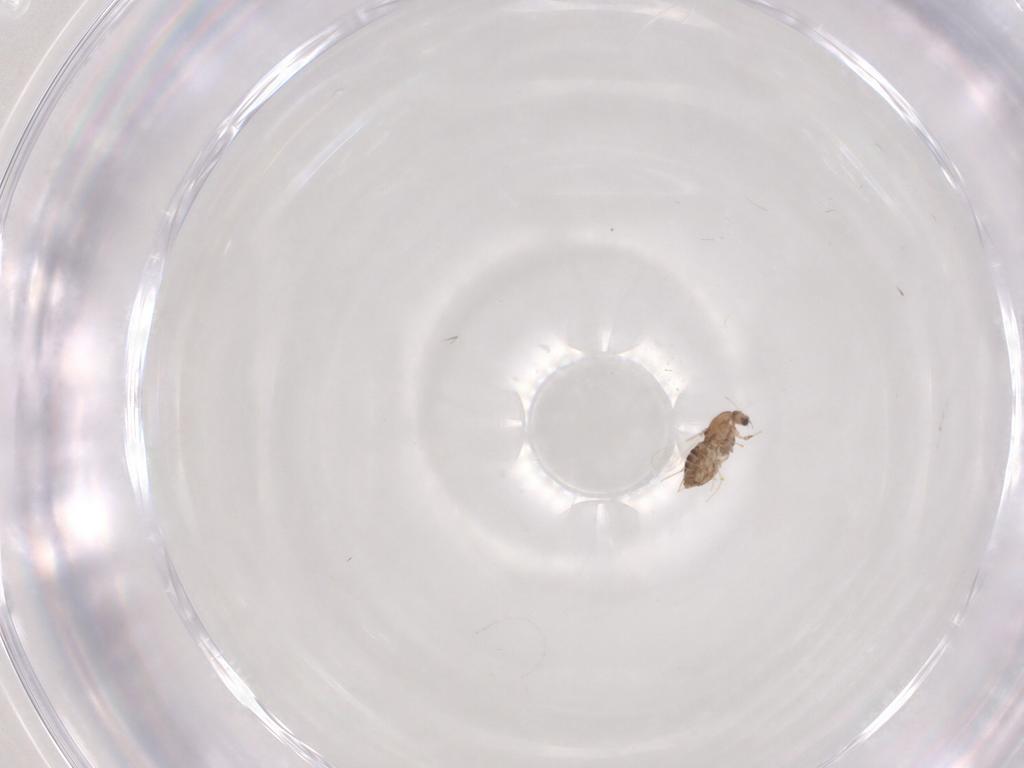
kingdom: Animalia
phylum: Arthropoda
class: Insecta
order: Diptera
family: Cecidomyiidae
